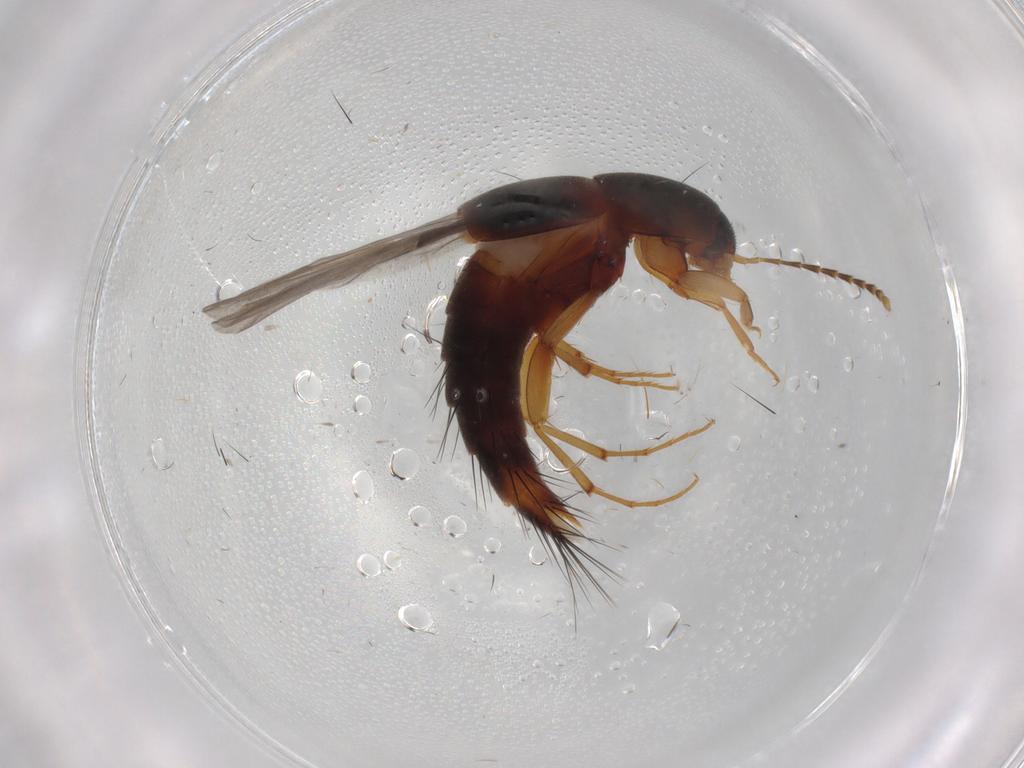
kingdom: Animalia
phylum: Arthropoda
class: Insecta
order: Coleoptera
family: Staphylinidae
